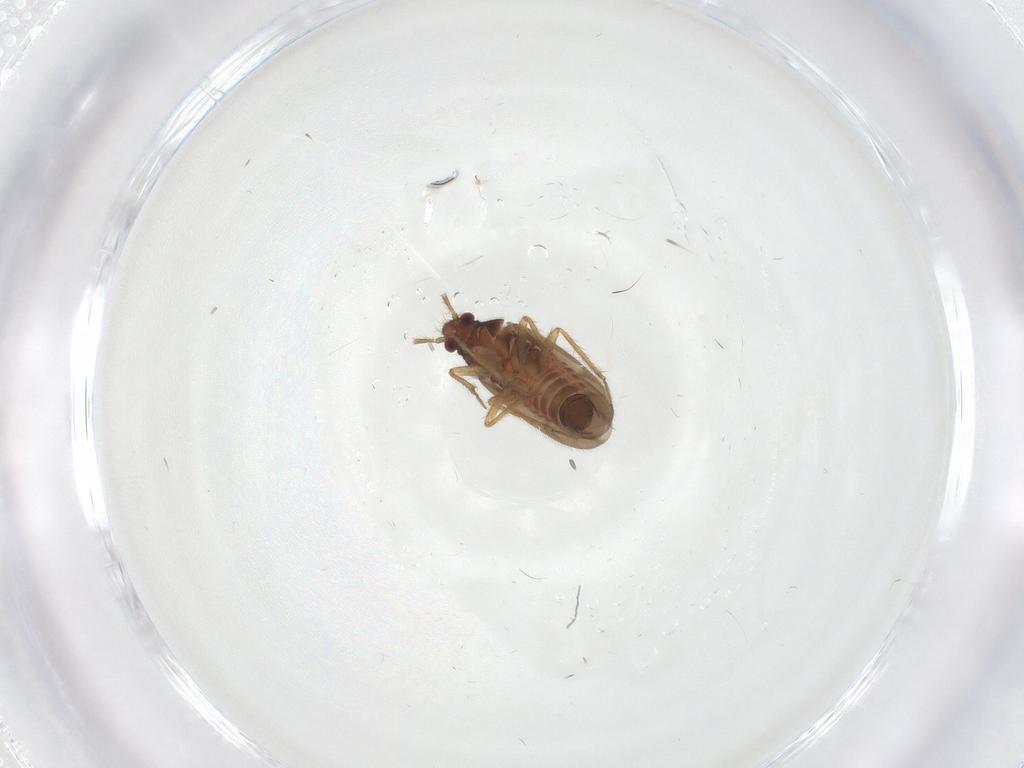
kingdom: Animalia
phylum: Arthropoda
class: Insecta
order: Hemiptera
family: Ceratocombidae
